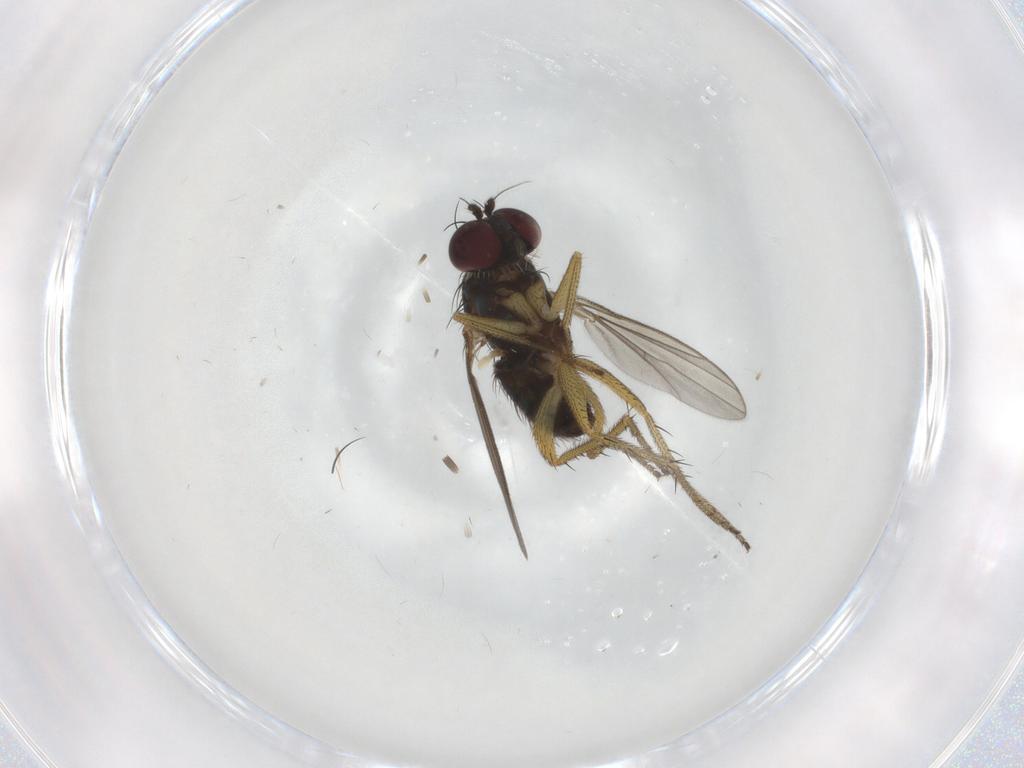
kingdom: Animalia
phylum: Arthropoda
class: Insecta
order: Diptera
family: Dolichopodidae
